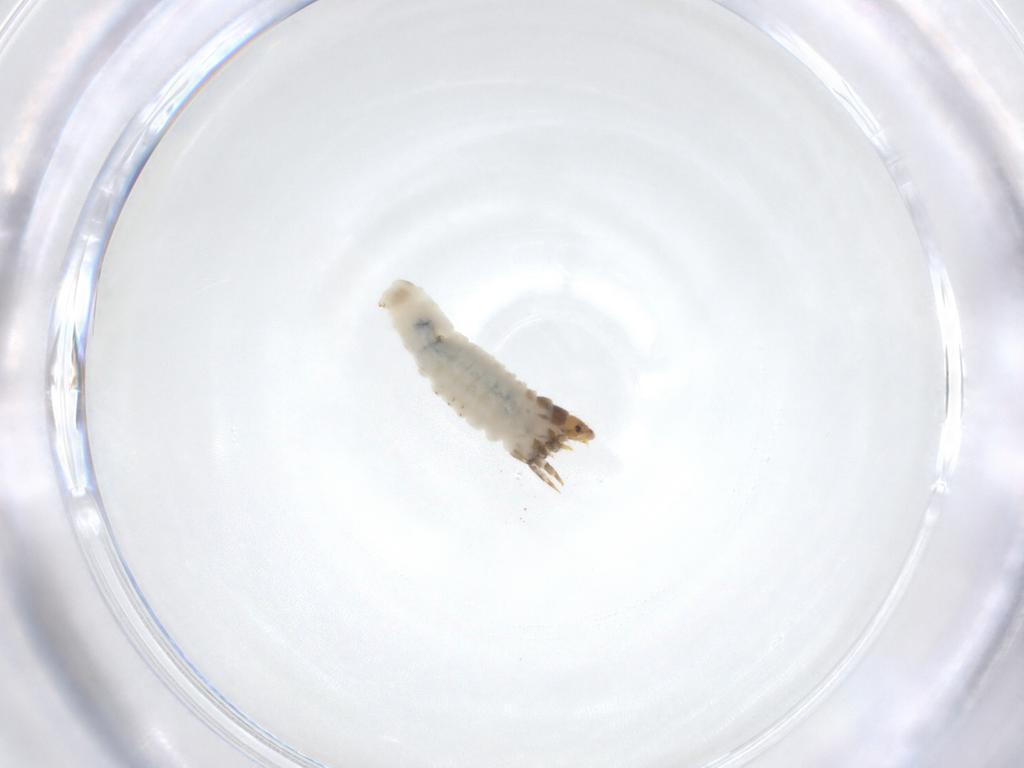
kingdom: Animalia
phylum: Arthropoda
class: Insecta
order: Lepidoptera
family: Psychidae
